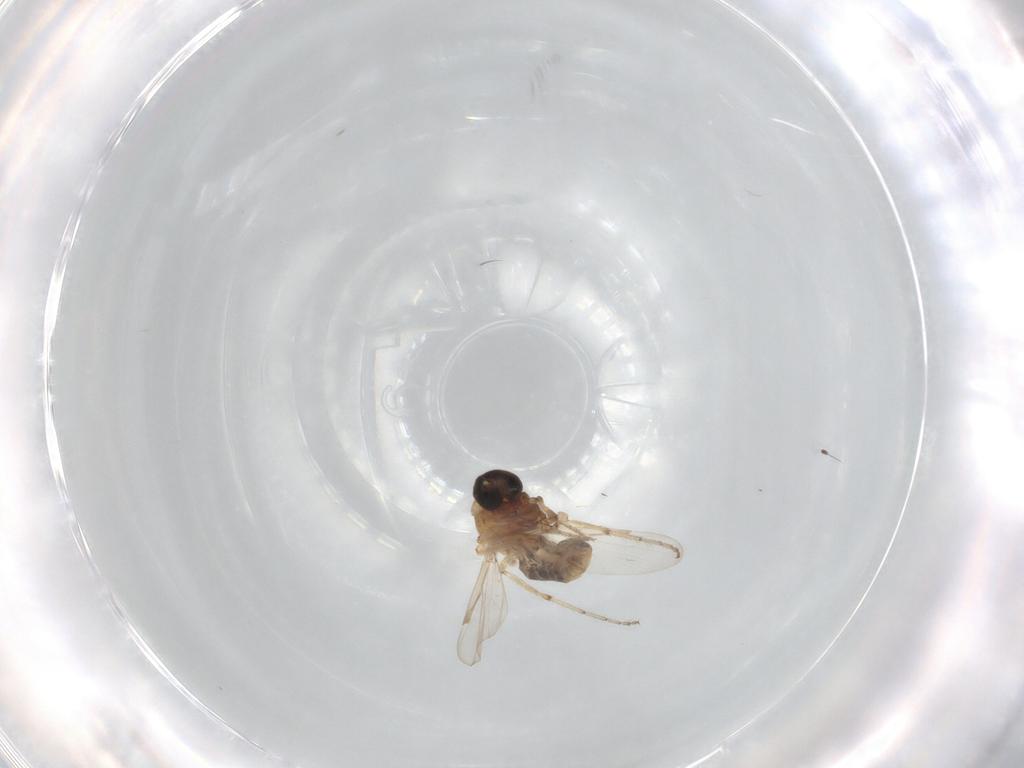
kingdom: Animalia
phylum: Arthropoda
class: Insecta
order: Diptera
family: Ceratopogonidae
